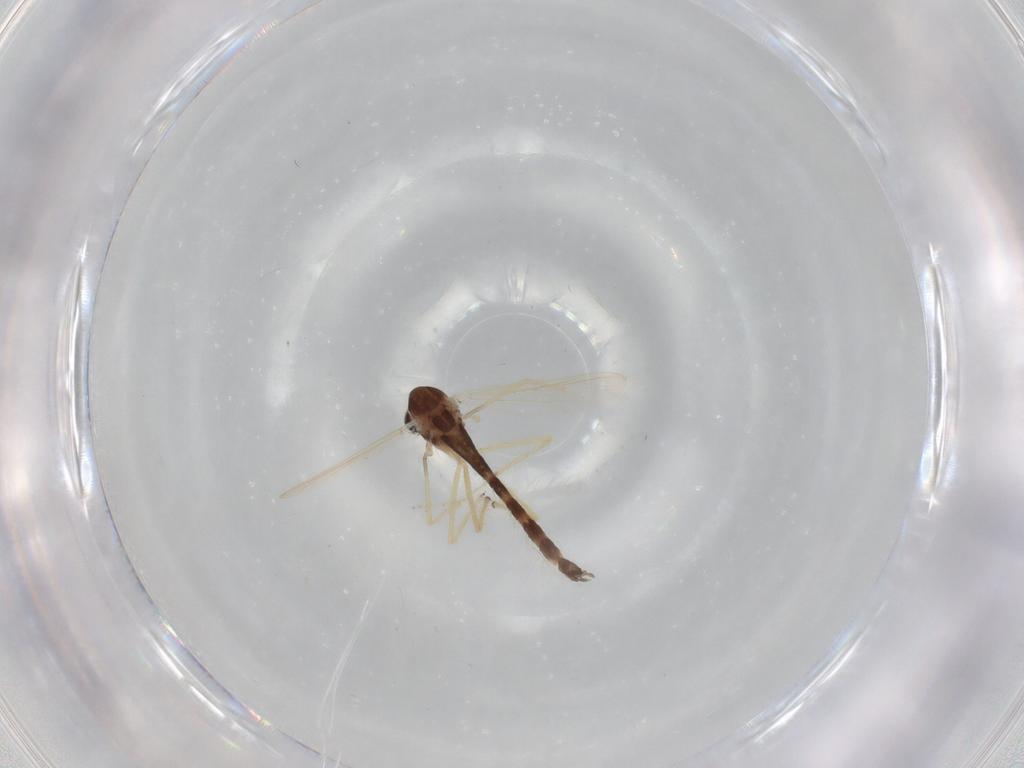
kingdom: Animalia
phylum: Arthropoda
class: Insecta
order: Diptera
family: Chironomidae
